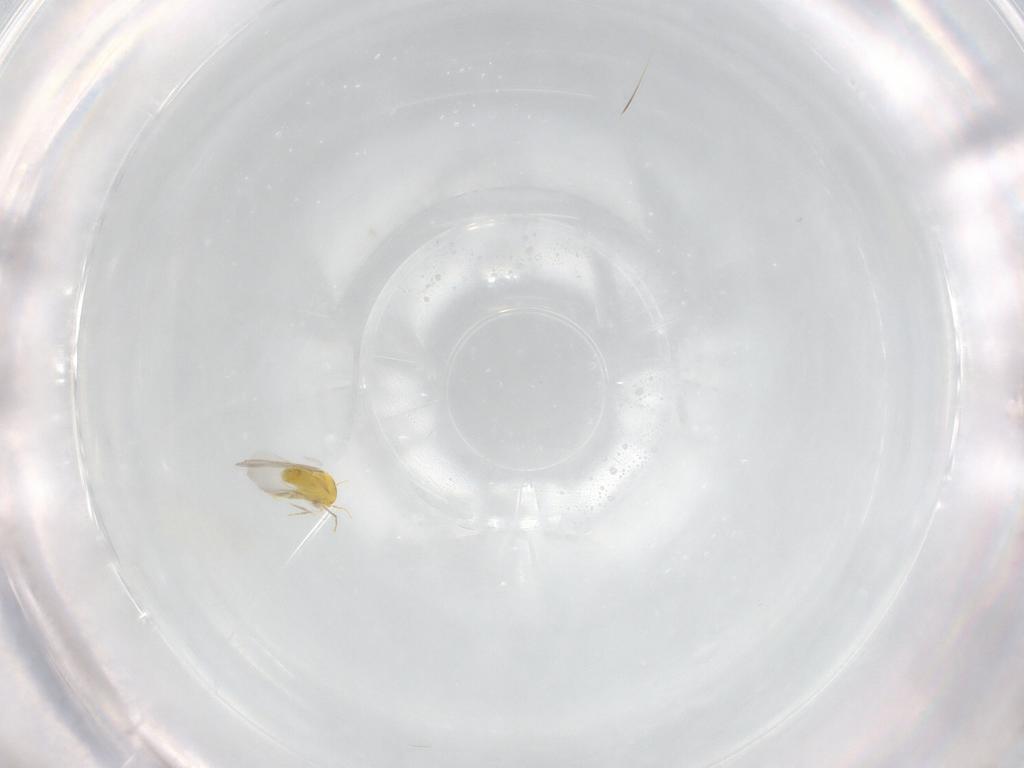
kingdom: Animalia
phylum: Arthropoda
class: Insecta
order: Hemiptera
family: Aleyrodidae
